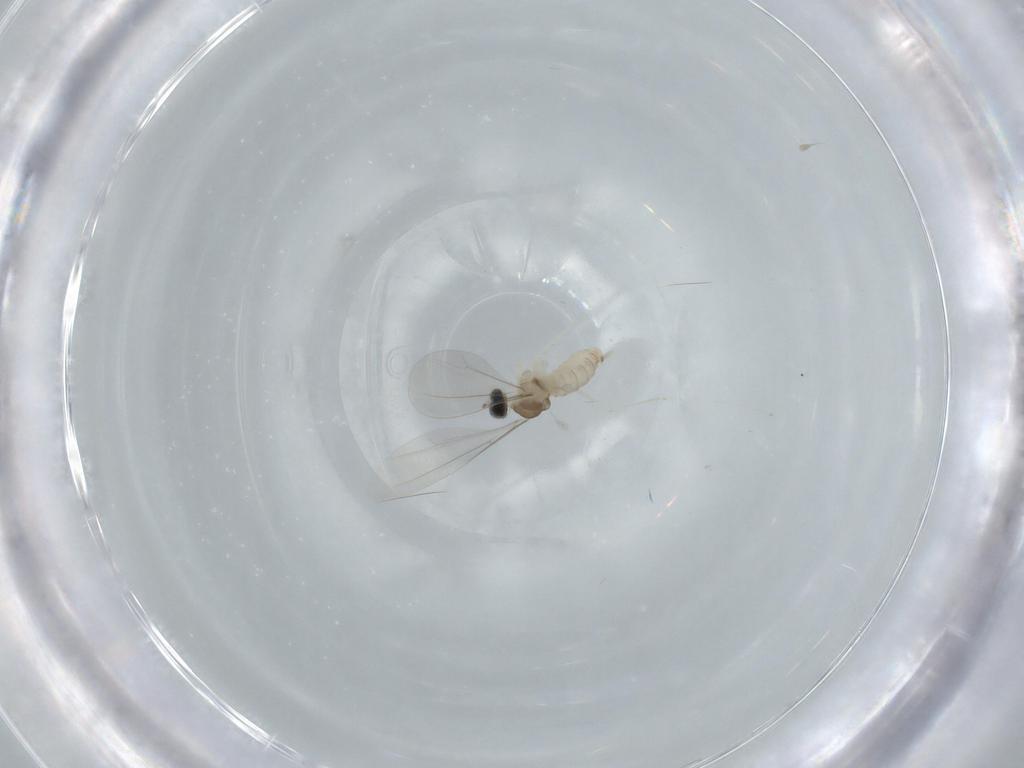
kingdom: Animalia
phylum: Arthropoda
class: Insecta
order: Diptera
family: Cecidomyiidae
